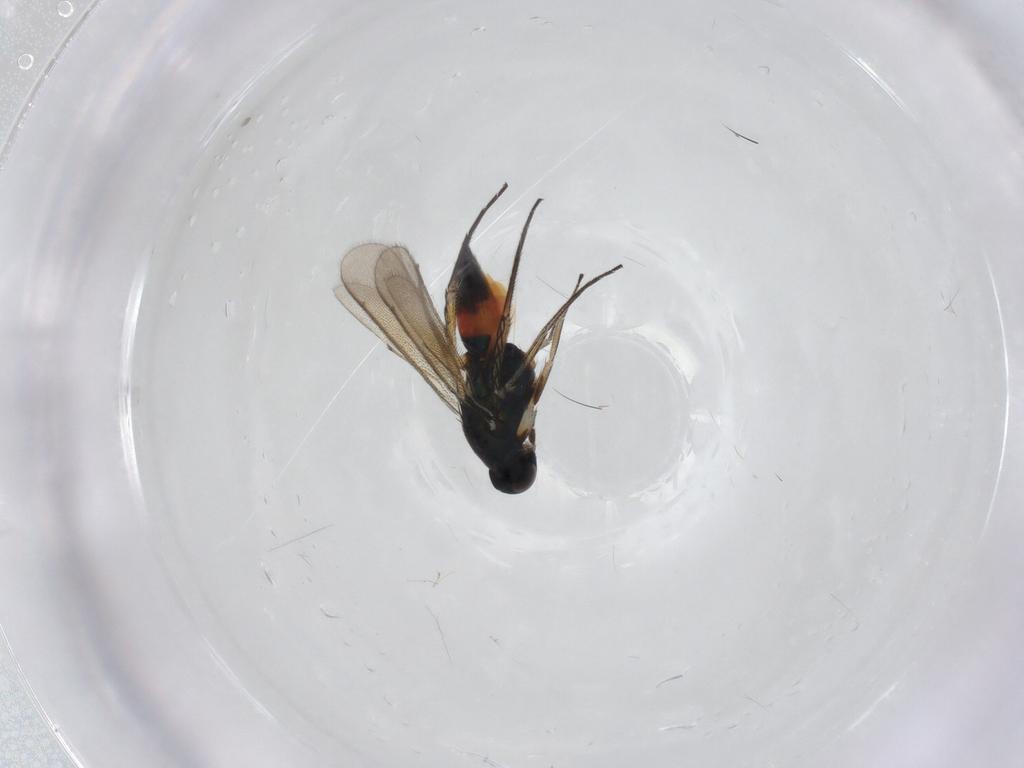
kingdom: Animalia
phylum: Arthropoda
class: Insecta
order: Hymenoptera
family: Eulophidae
